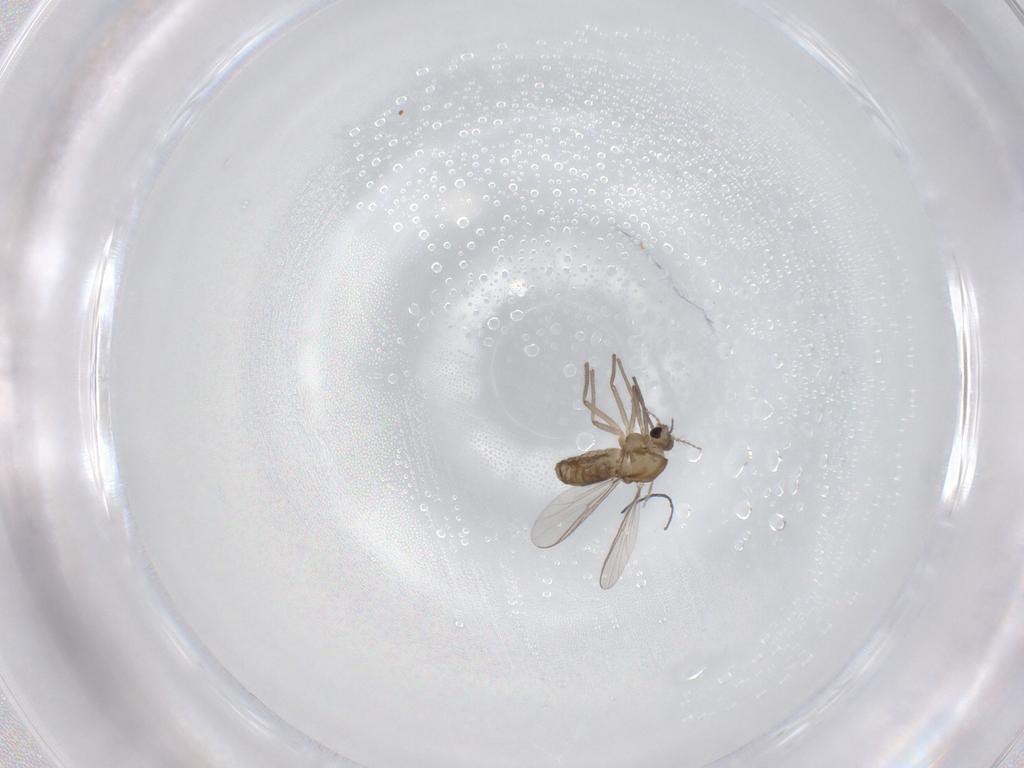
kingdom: Animalia
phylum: Arthropoda
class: Insecta
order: Diptera
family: Chironomidae
